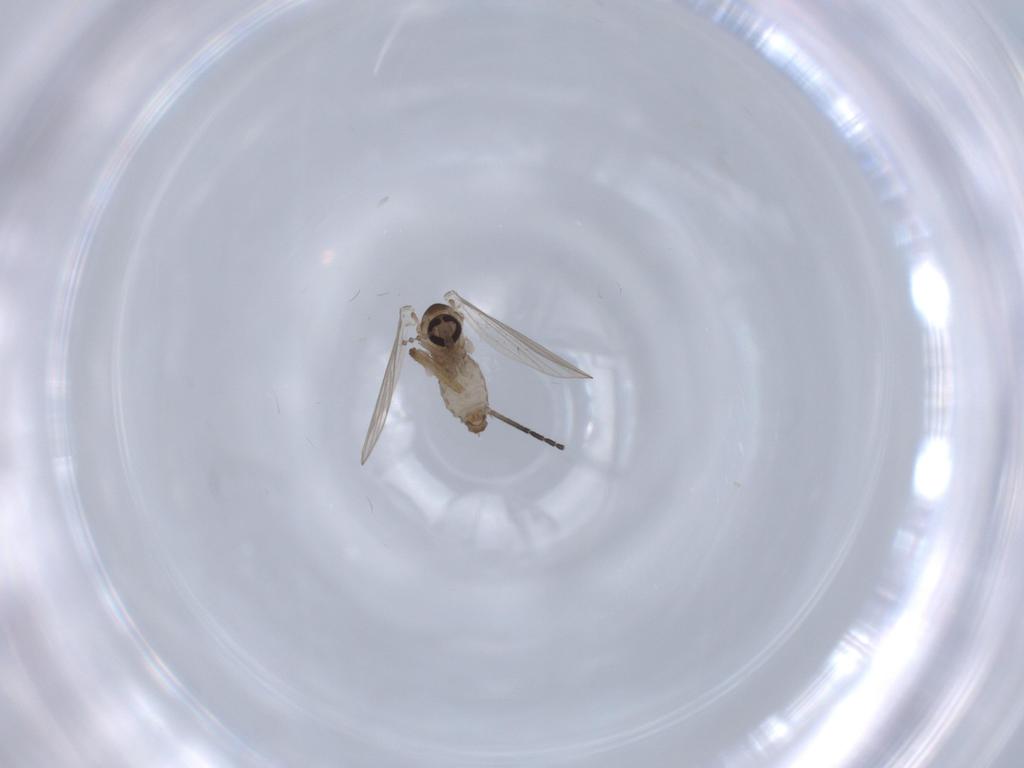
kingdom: Animalia
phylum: Arthropoda
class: Insecta
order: Diptera
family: Psychodidae
